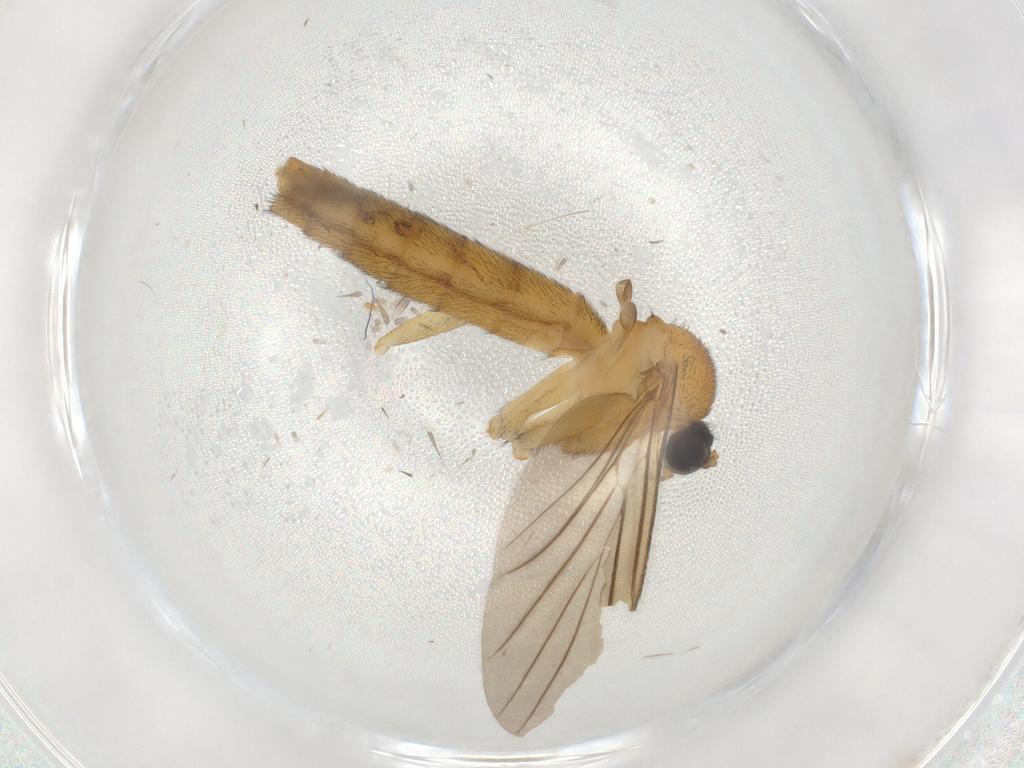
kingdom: Animalia
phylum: Arthropoda
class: Insecta
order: Diptera
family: Keroplatidae
